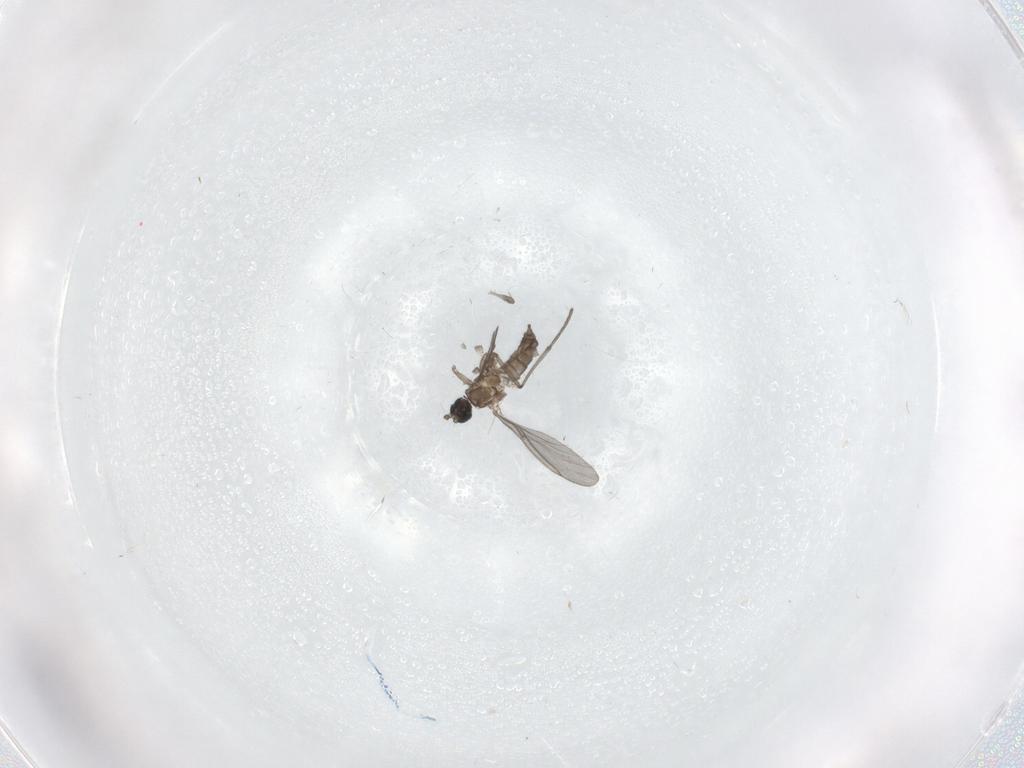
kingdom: Animalia
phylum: Arthropoda
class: Insecta
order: Diptera
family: Sciaridae
